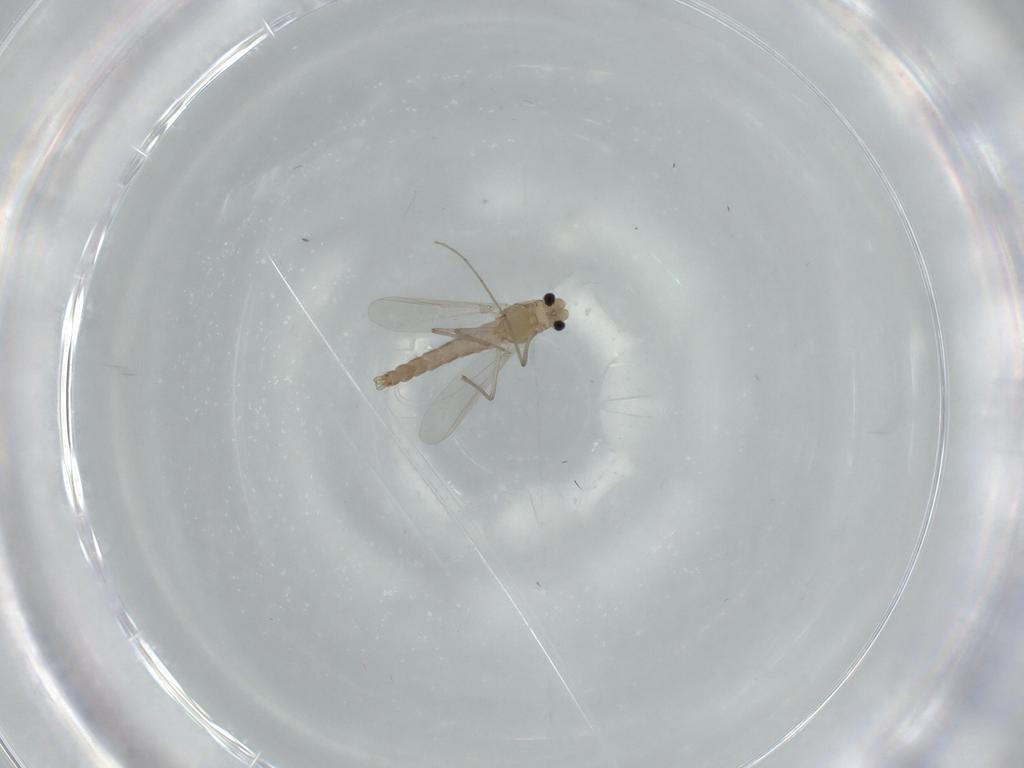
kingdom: Animalia
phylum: Arthropoda
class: Insecta
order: Diptera
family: Chironomidae
